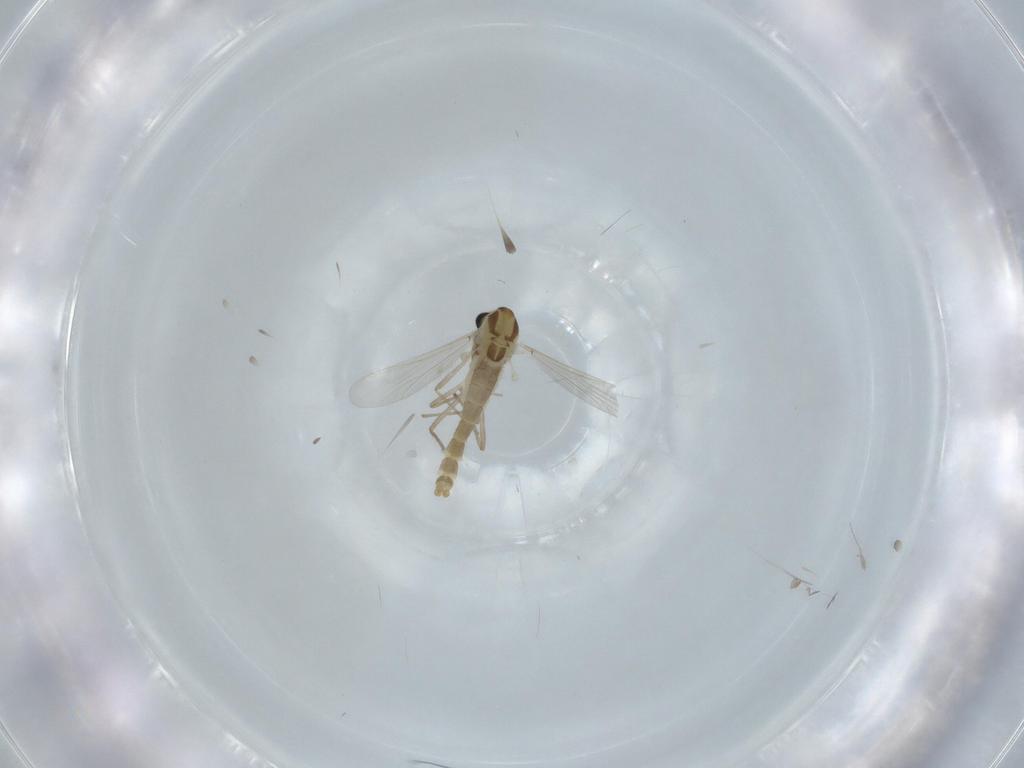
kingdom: Animalia
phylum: Arthropoda
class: Insecta
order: Diptera
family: Chironomidae
